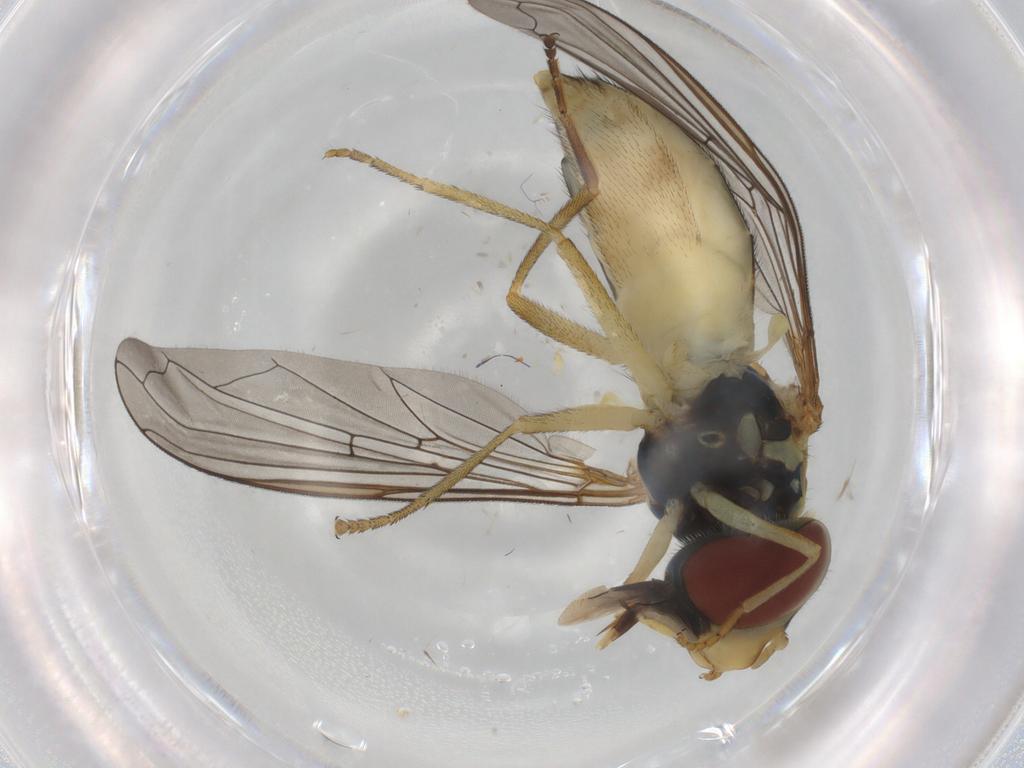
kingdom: Animalia
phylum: Arthropoda
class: Insecta
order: Diptera
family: Syrphidae
